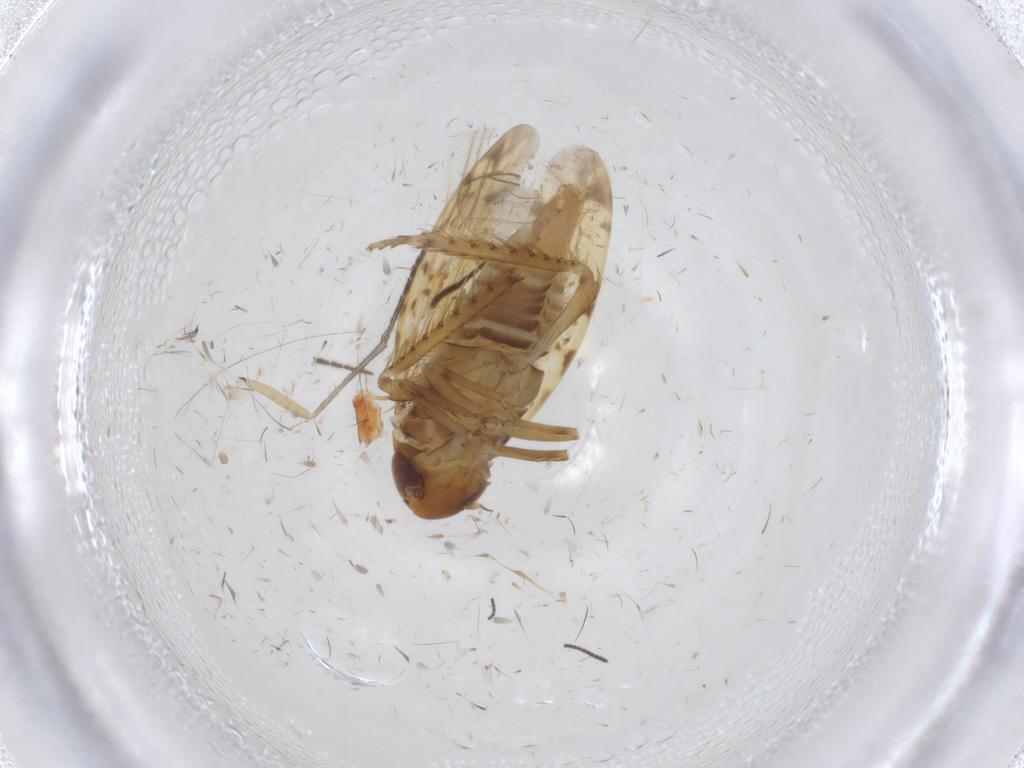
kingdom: Animalia
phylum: Arthropoda
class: Insecta
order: Hemiptera
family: Cicadellidae
